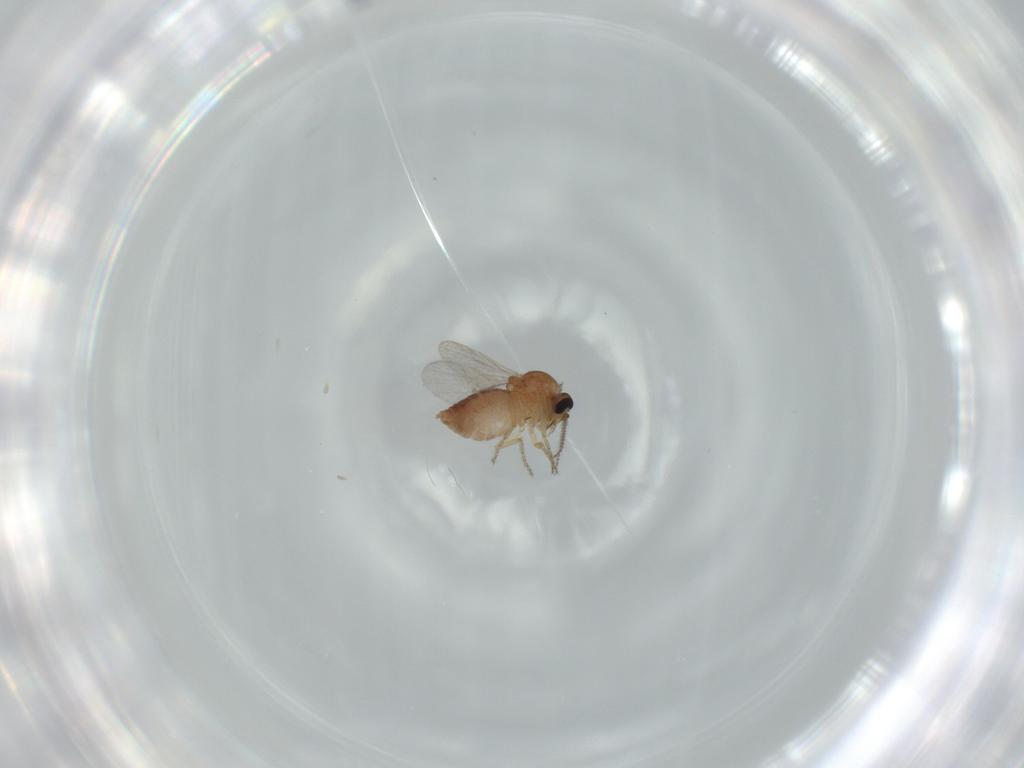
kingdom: Animalia
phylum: Arthropoda
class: Insecta
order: Diptera
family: Ceratopogonidae
